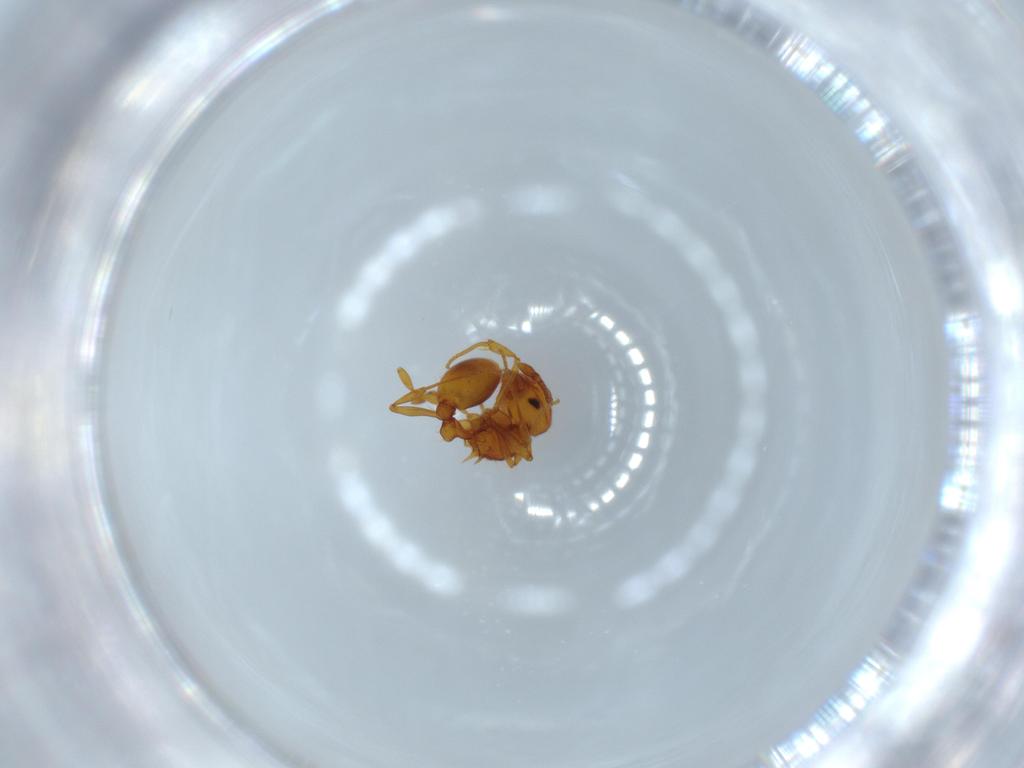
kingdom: Animalia
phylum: Arthropoda
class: Insecta
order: Hymenoptera
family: Formicidae
